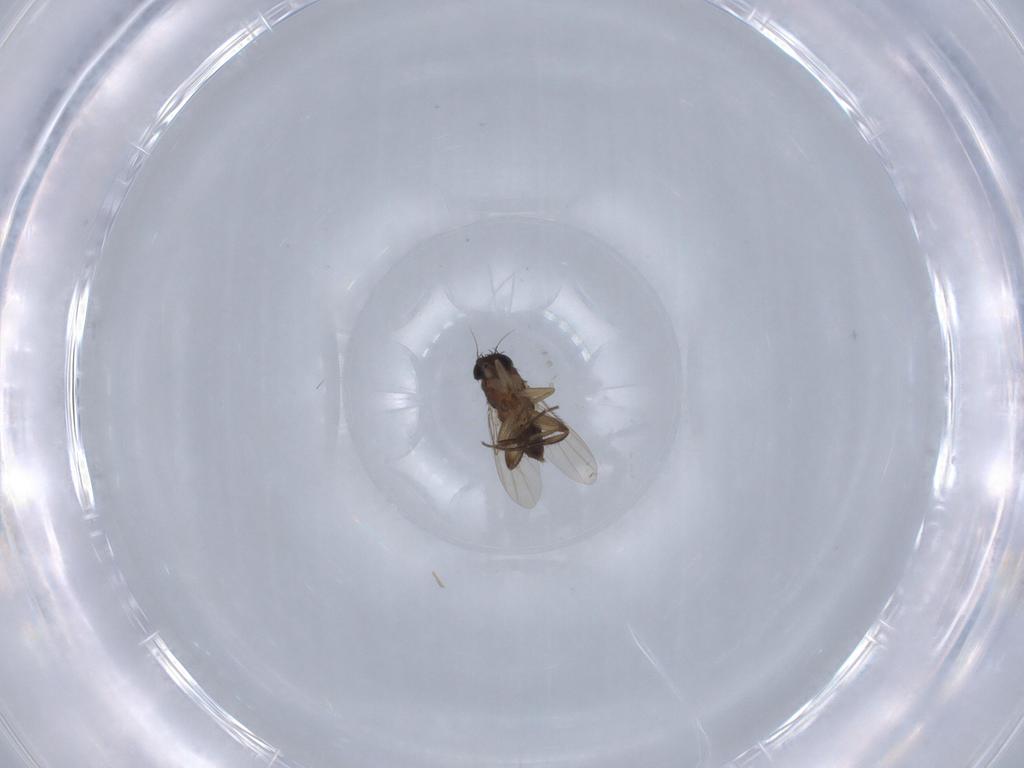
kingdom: Animalia
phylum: Arthropoda
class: Insecta
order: Diptera
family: Phoridae
